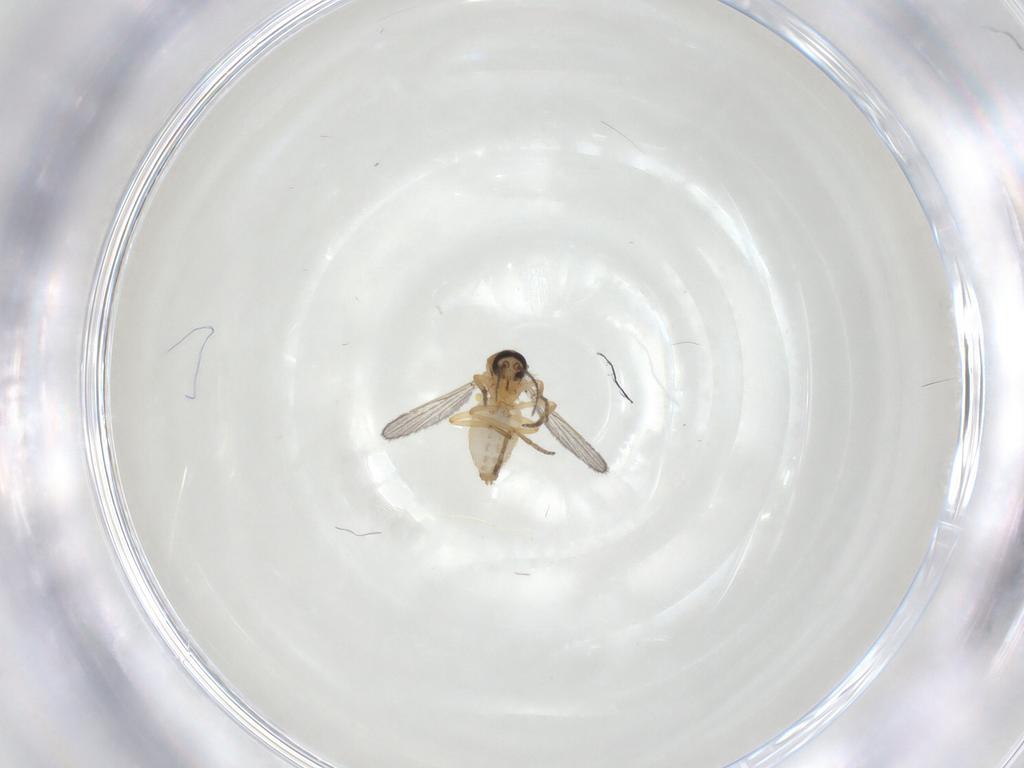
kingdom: Animalia
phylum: Arthropoda
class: Insecta
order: Diptera
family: Ceratopogonidae
